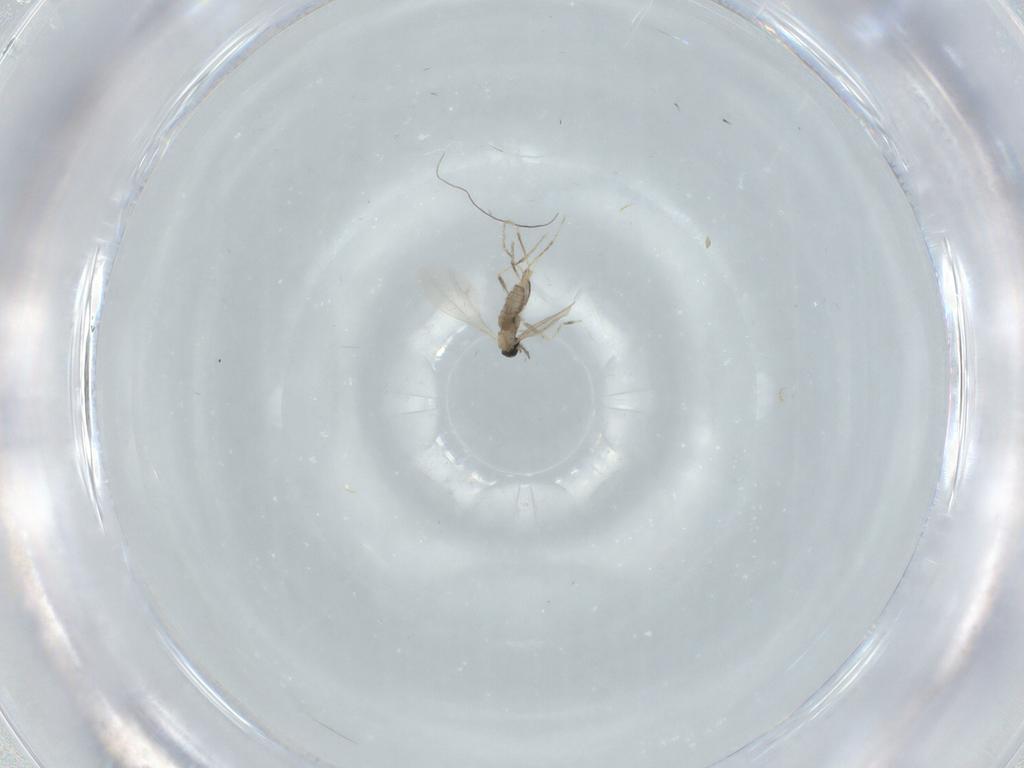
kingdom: Animalia
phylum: Arthropoda
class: Insecta
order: Diptera
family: Cecidomyiidae
